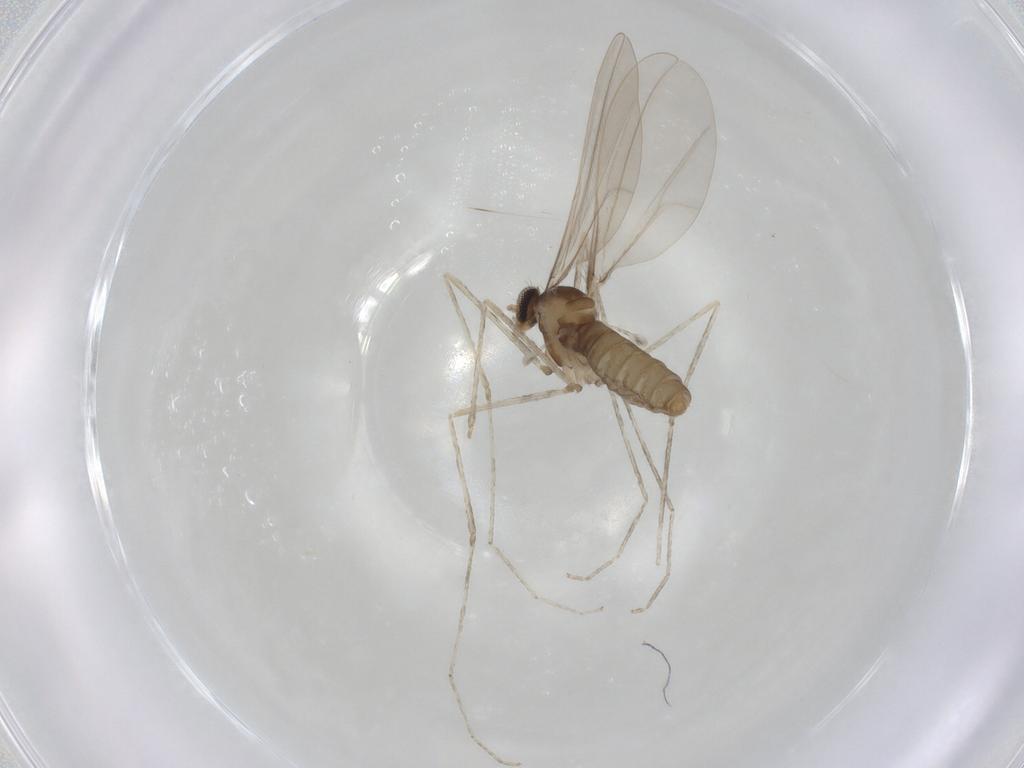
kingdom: Animalia
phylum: Arthropoda
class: Insecta
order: Diptera
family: Cecidomyiidae
